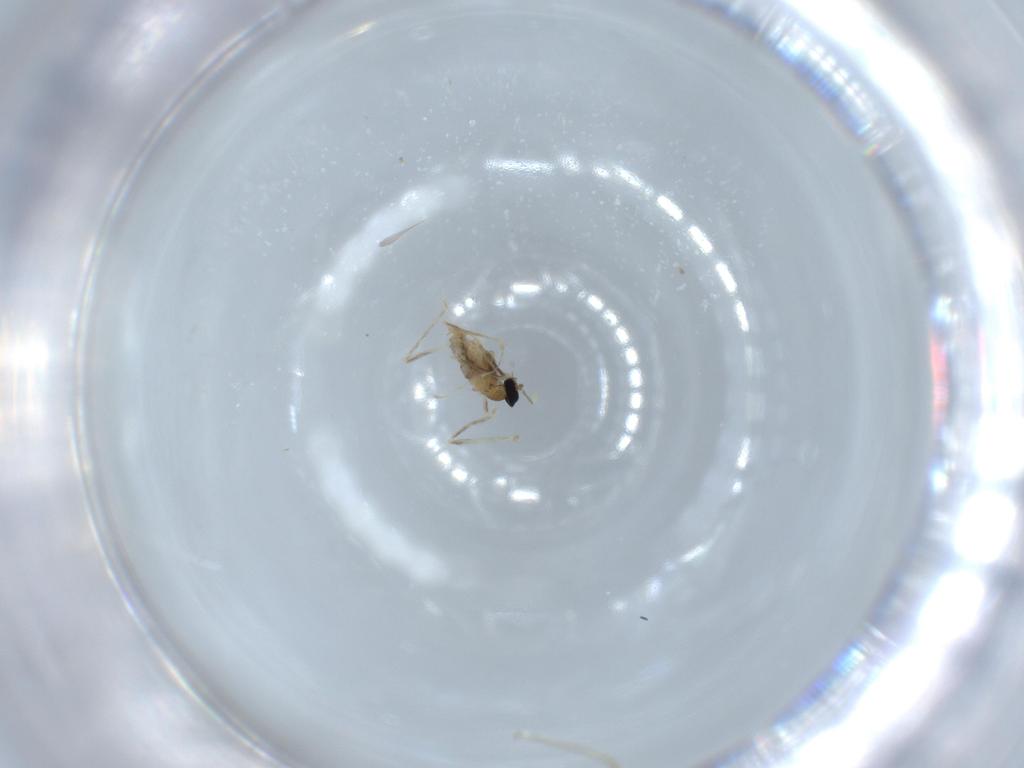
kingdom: Animalia
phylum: Arthropoda
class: Insecta
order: Diptera
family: Cecidomyiidae
